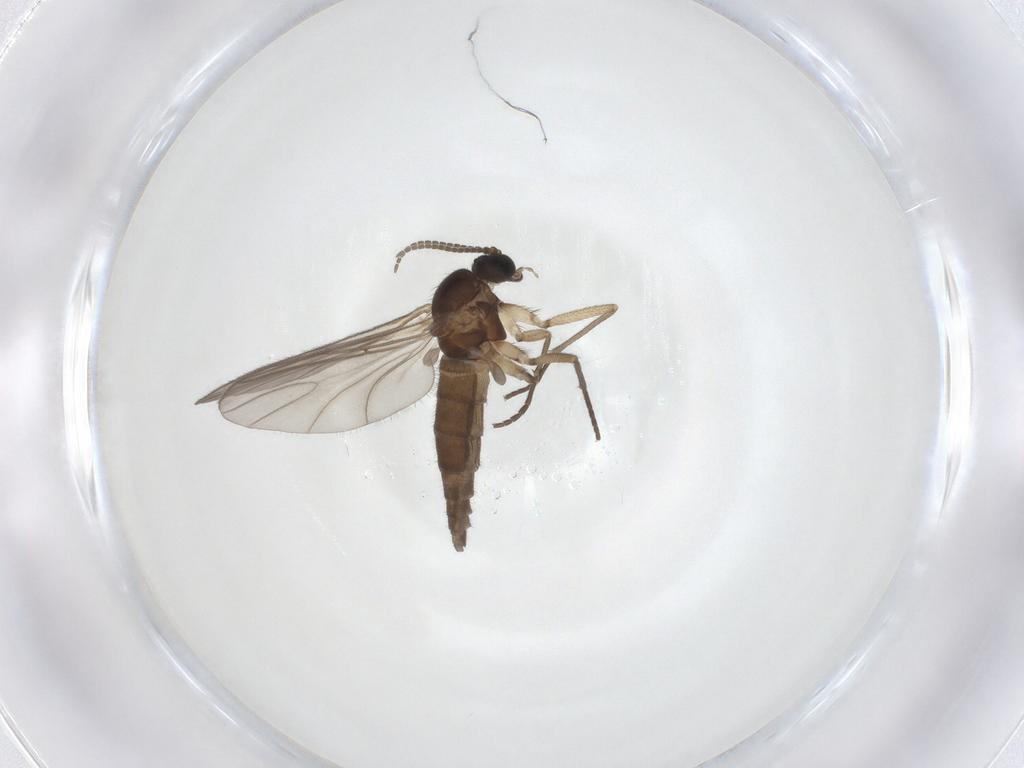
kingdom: Animalia
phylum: Arthropoda
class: Insecta
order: Diptera
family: Sciaridae
